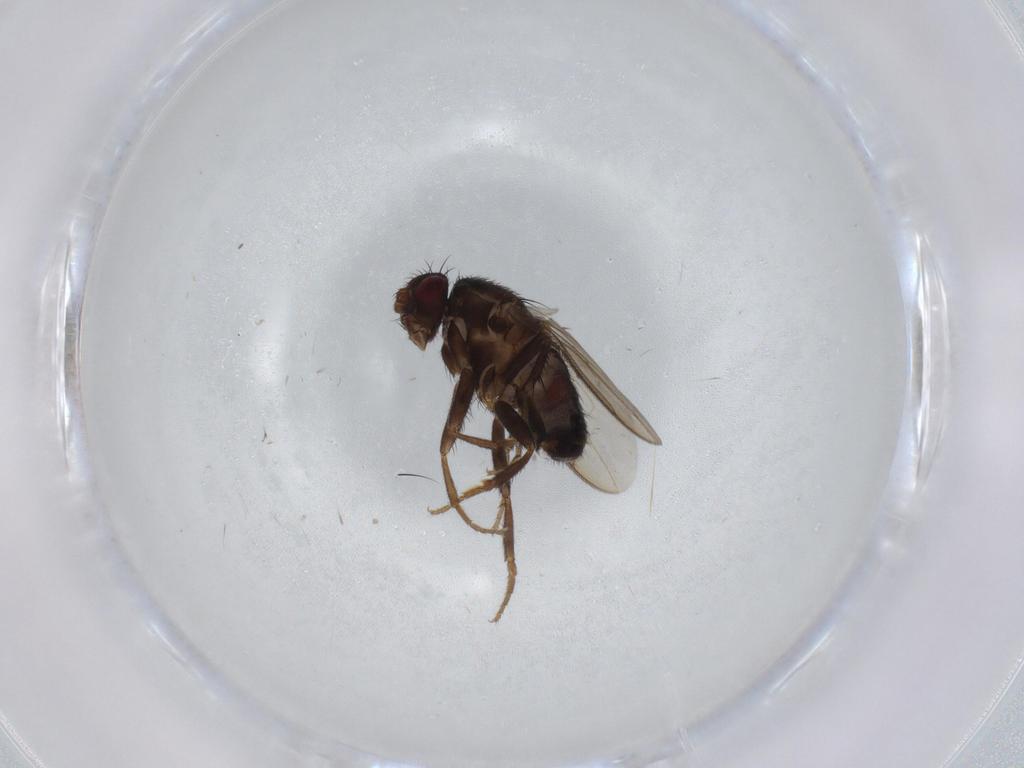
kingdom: Animalia
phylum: Arthropoda
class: Insecta
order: Diptera
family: Sphaeroceridae
